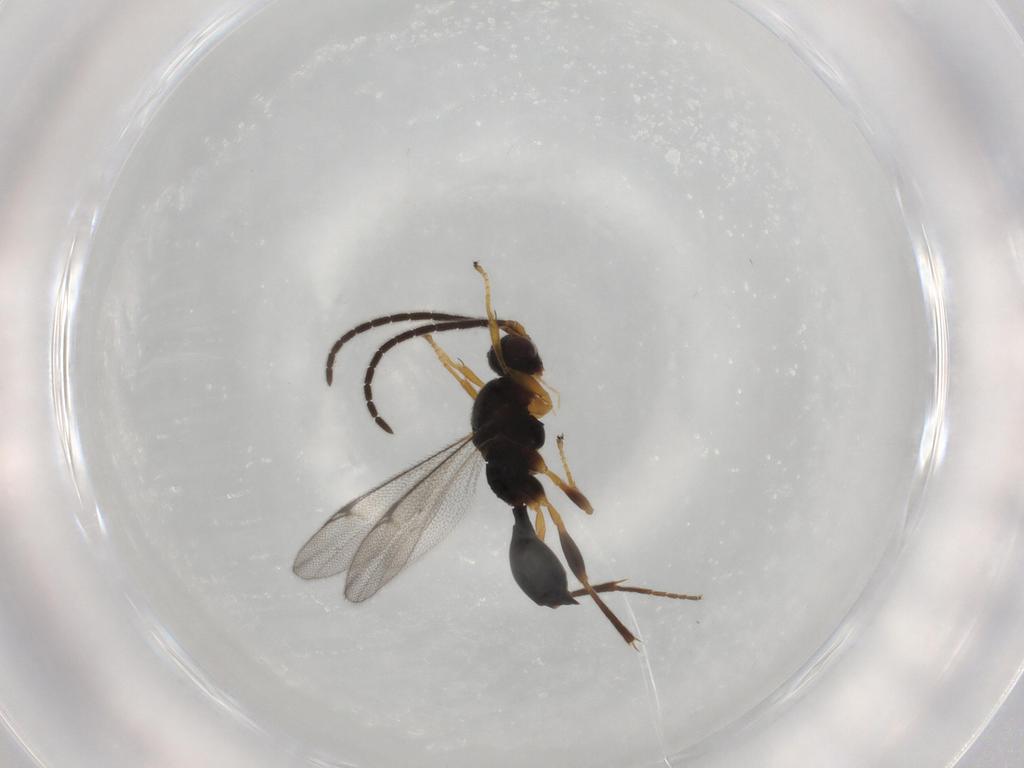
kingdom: Animalia
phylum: Arthropoda
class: Insecta
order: Hymenoptera
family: Proctotrupidae
